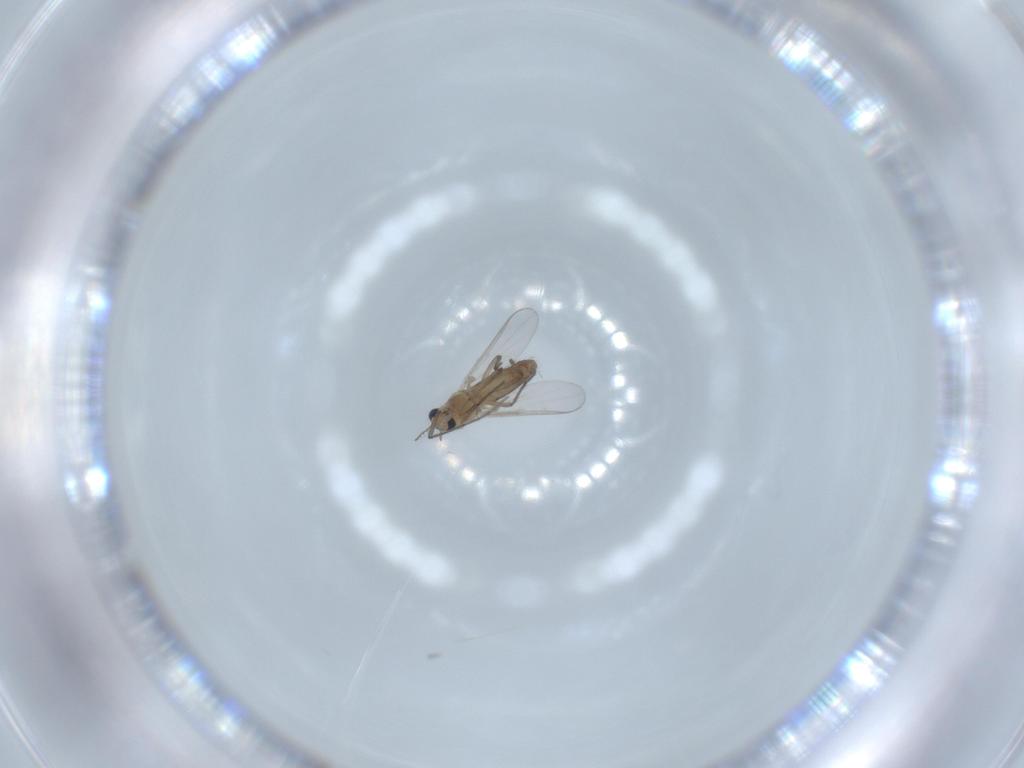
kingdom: Animalia
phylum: Arthropoda
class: Insecta
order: Diptera
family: Chironomidae
